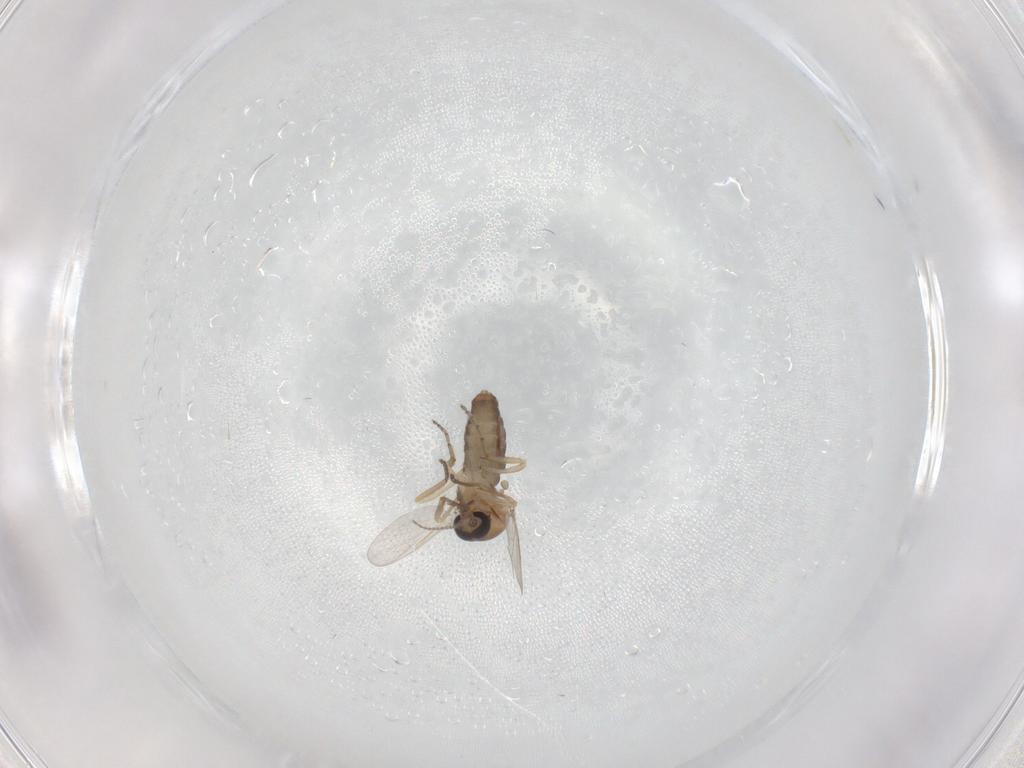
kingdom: Animalia
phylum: Arthropoda
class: Insecta
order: Diptera
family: Ceratopogonidae
